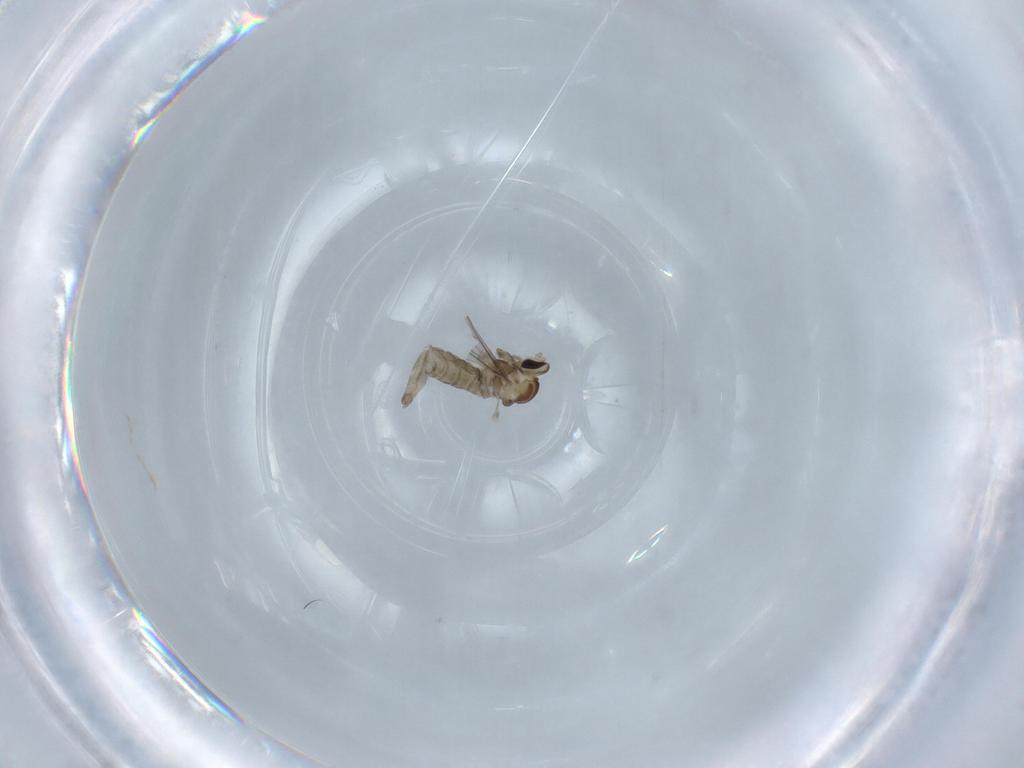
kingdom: Animalia
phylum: Arthropoda
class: Insecta
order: Diptera
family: Cecidomyiidae
